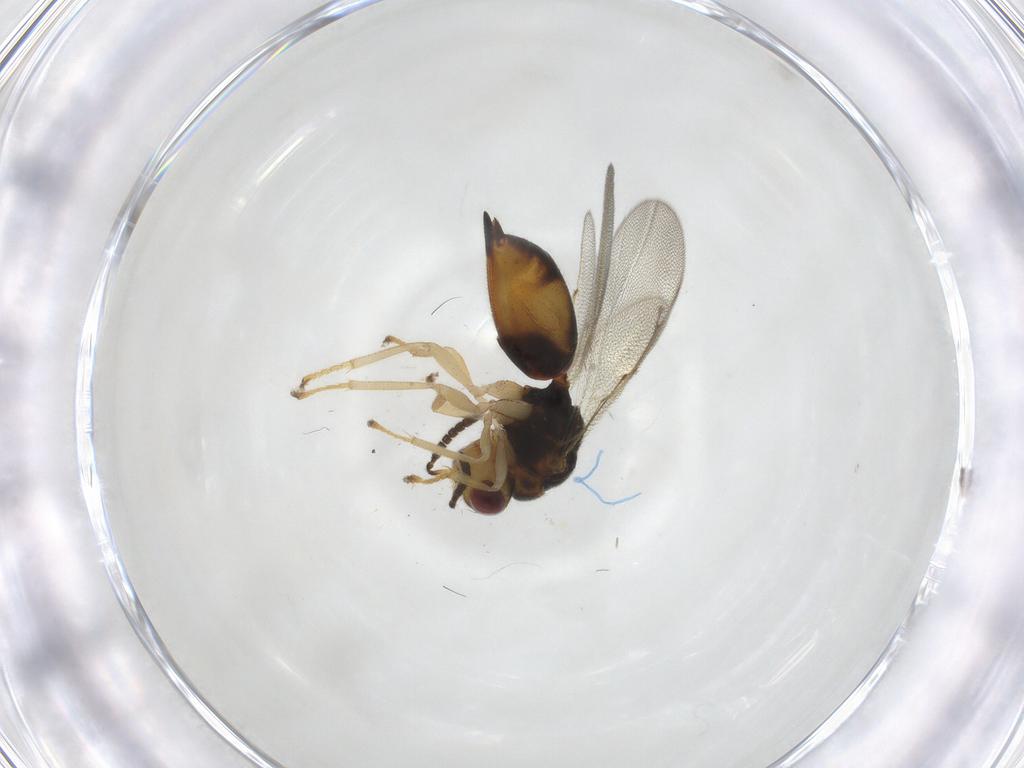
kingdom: Animalia
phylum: Arthropoda
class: Insecta
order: Hymenoptera
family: Eurytomidae
